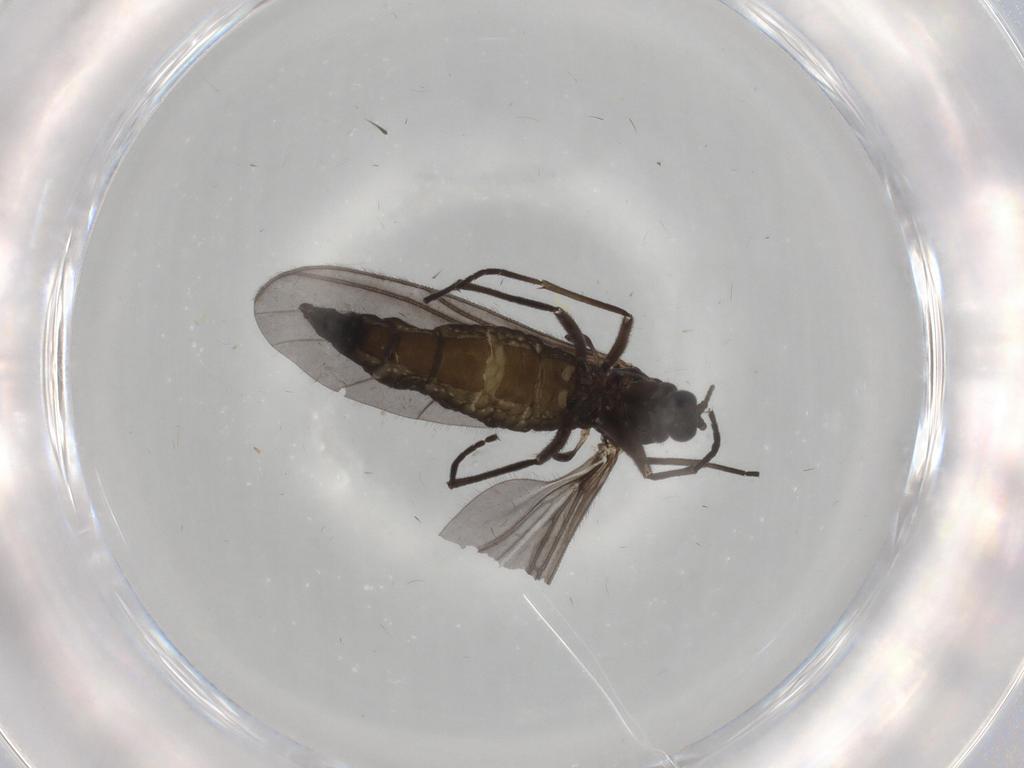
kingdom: Animalia
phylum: Arthropoda
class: Insecta
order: Diptera
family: Sciaridae
